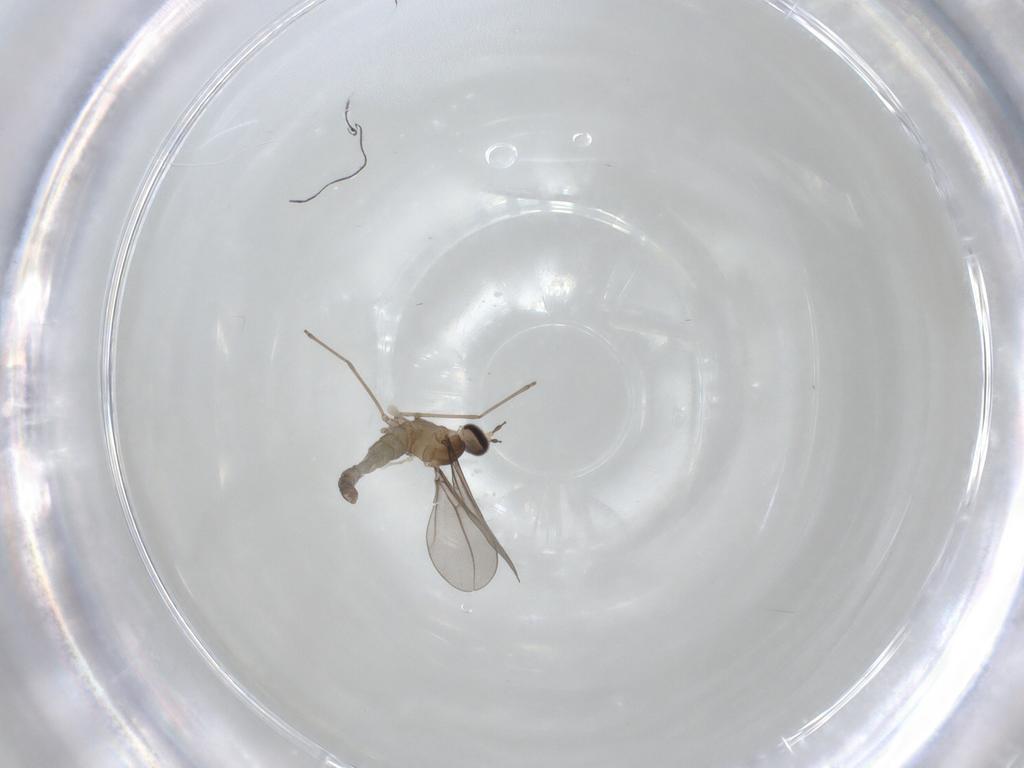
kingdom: Animalia
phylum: Arthropoda
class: Insecta
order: Diptera
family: Cecidomyiidae
